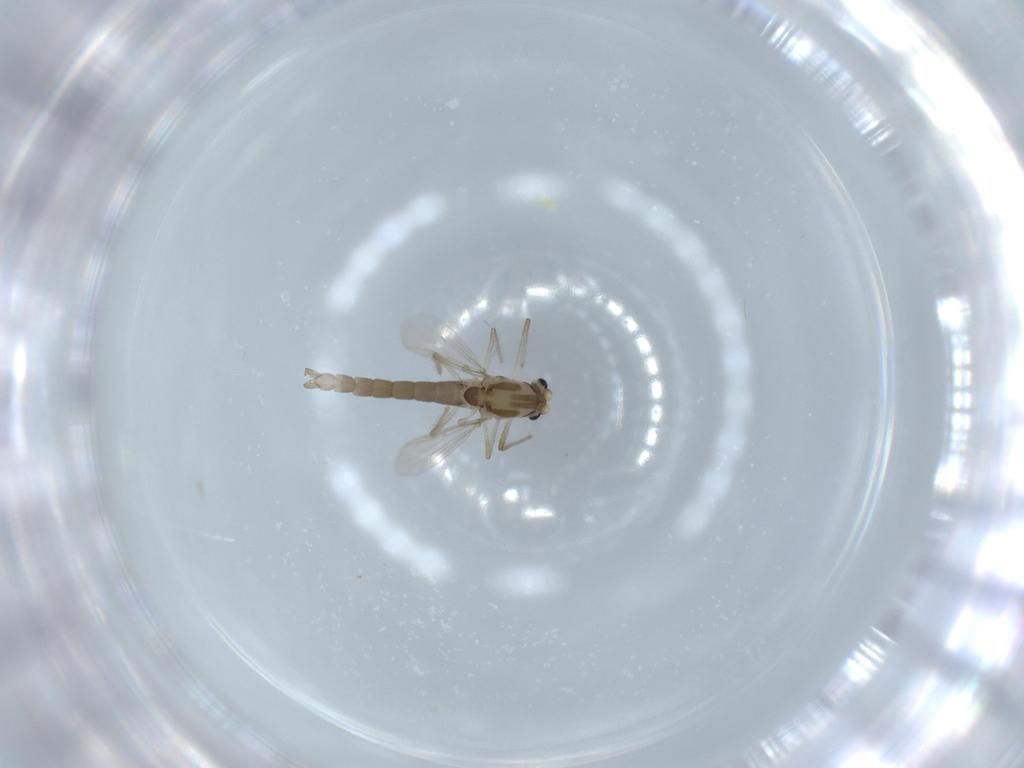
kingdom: Animalia
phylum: Arthropoda
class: Insecta
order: Diptera
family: Chironomidae
